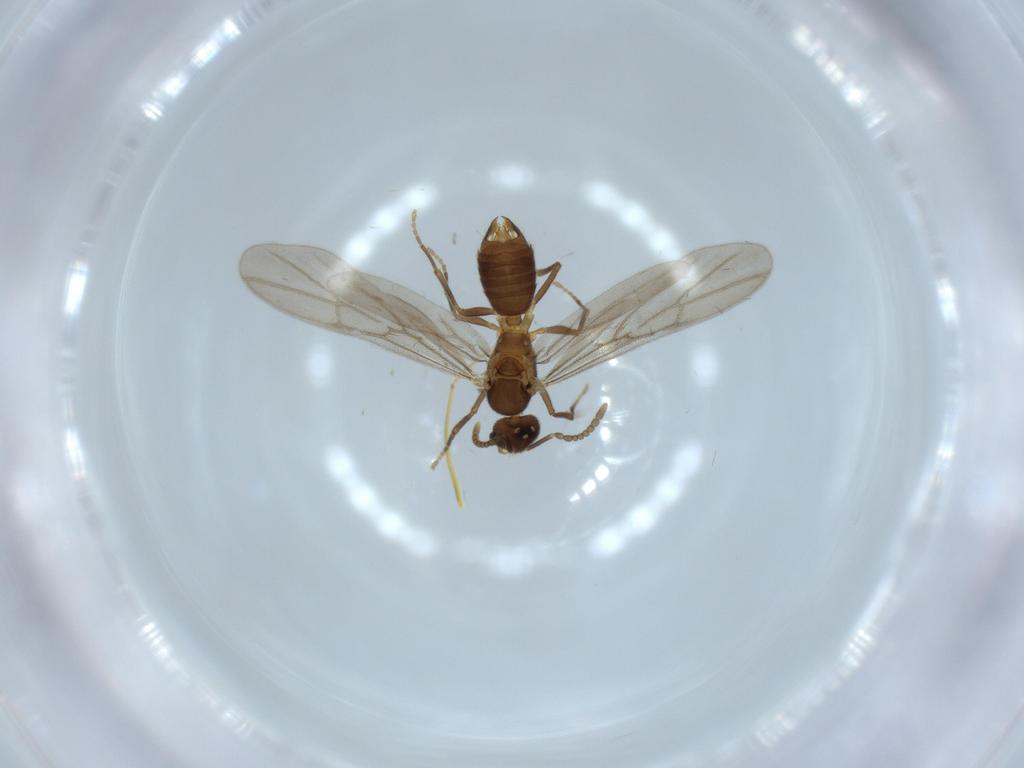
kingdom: Animalia
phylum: Arthropoda
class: Insecta
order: Hymenoptera
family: Formicidae
